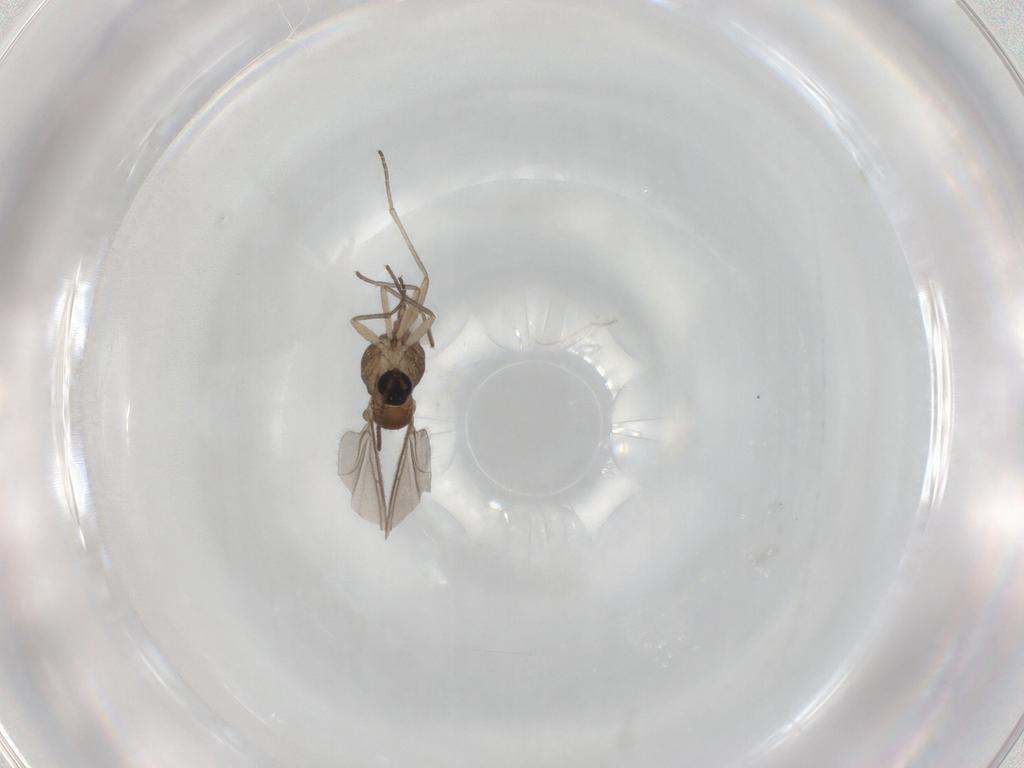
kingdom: Animalia
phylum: Arthropoda
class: Insecta
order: Diptera
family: Sciaridae
